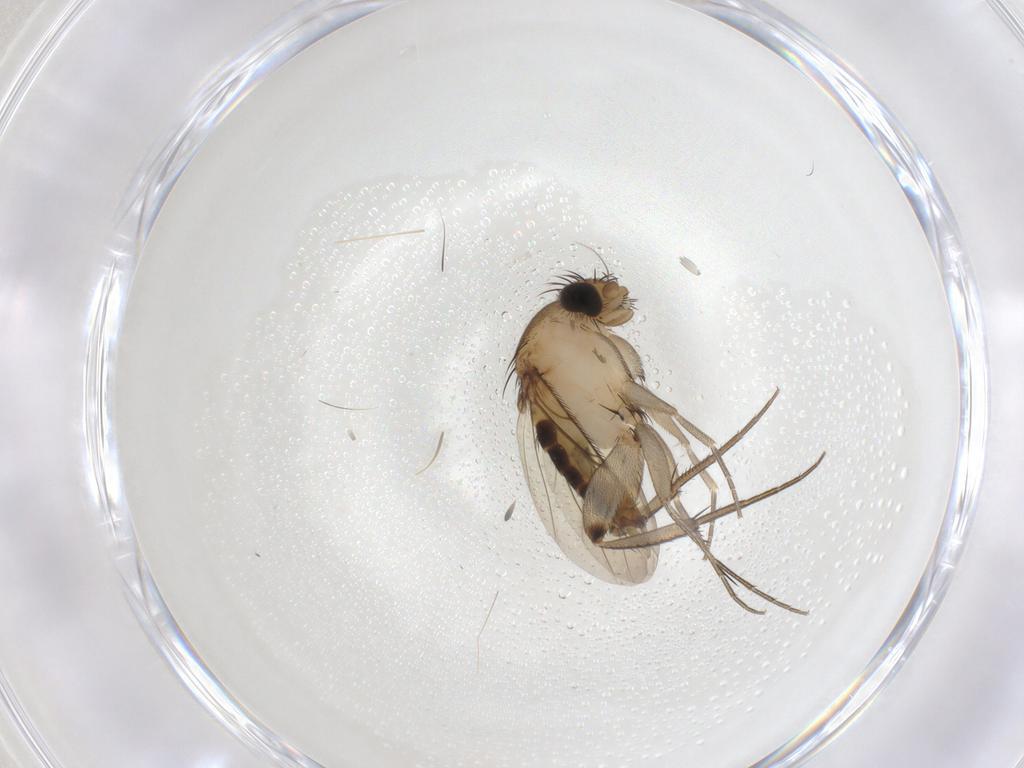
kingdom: Animalia
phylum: Arthropoda
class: Insecta
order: Diptera
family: Phoridae
